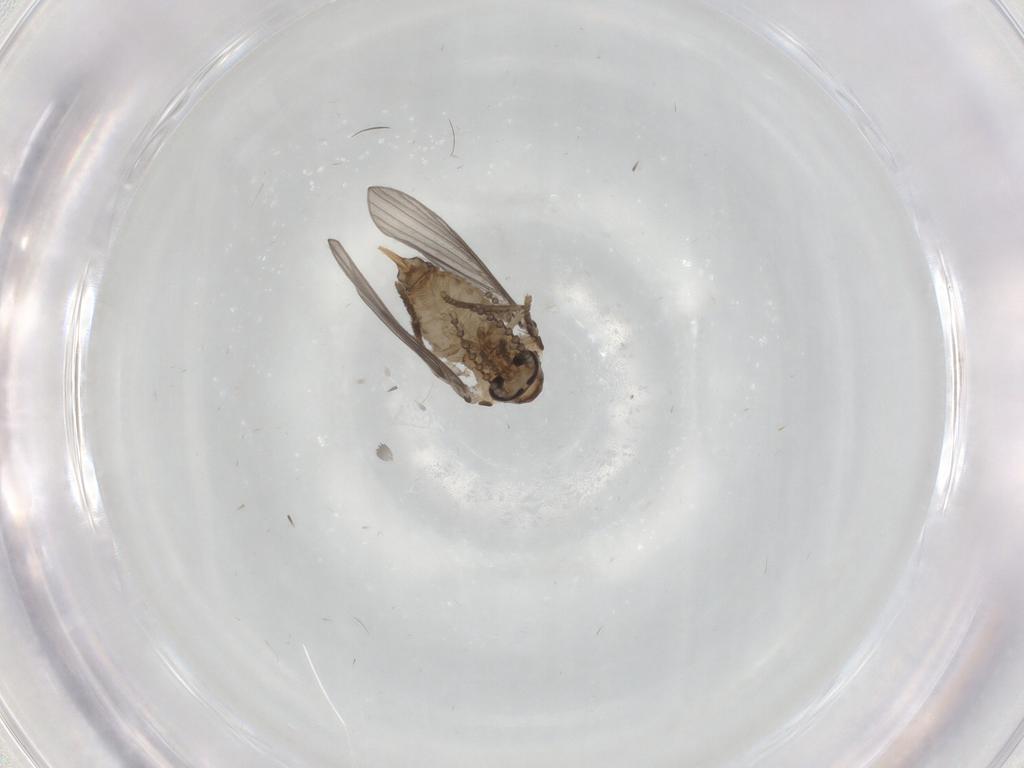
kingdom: Animalia
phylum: Arthropoda
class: Insecta
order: Diptera
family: Psychodidae
